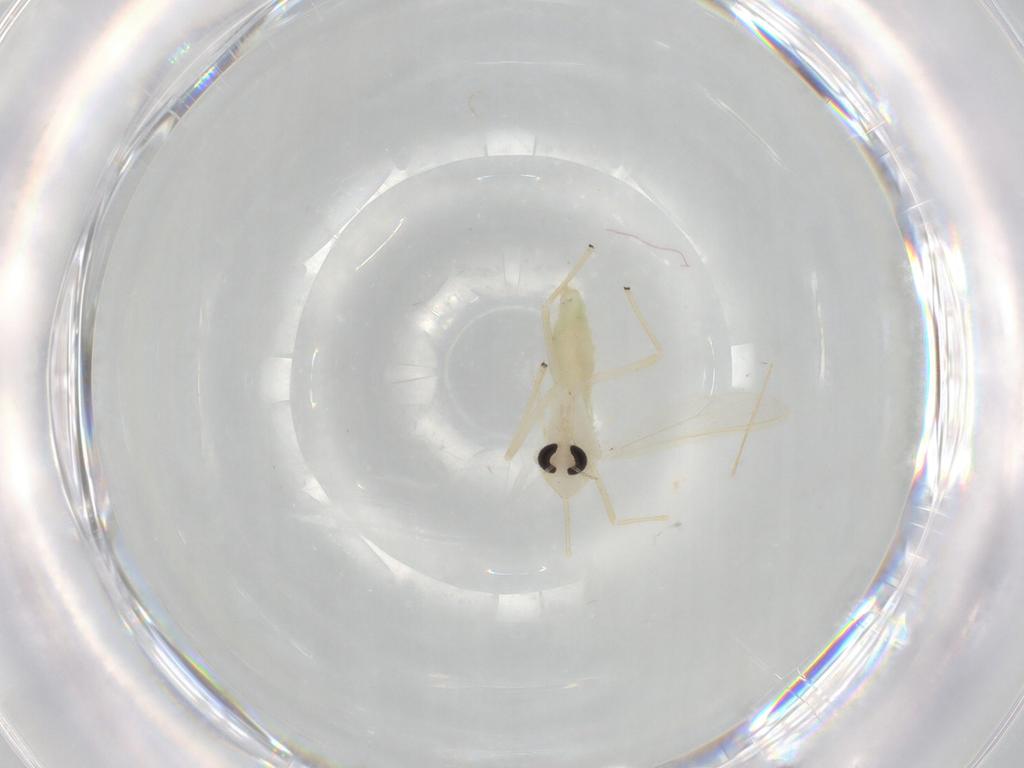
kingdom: Animalia
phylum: Arthropoda
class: Insecta
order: Diptera
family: Chironomidae
